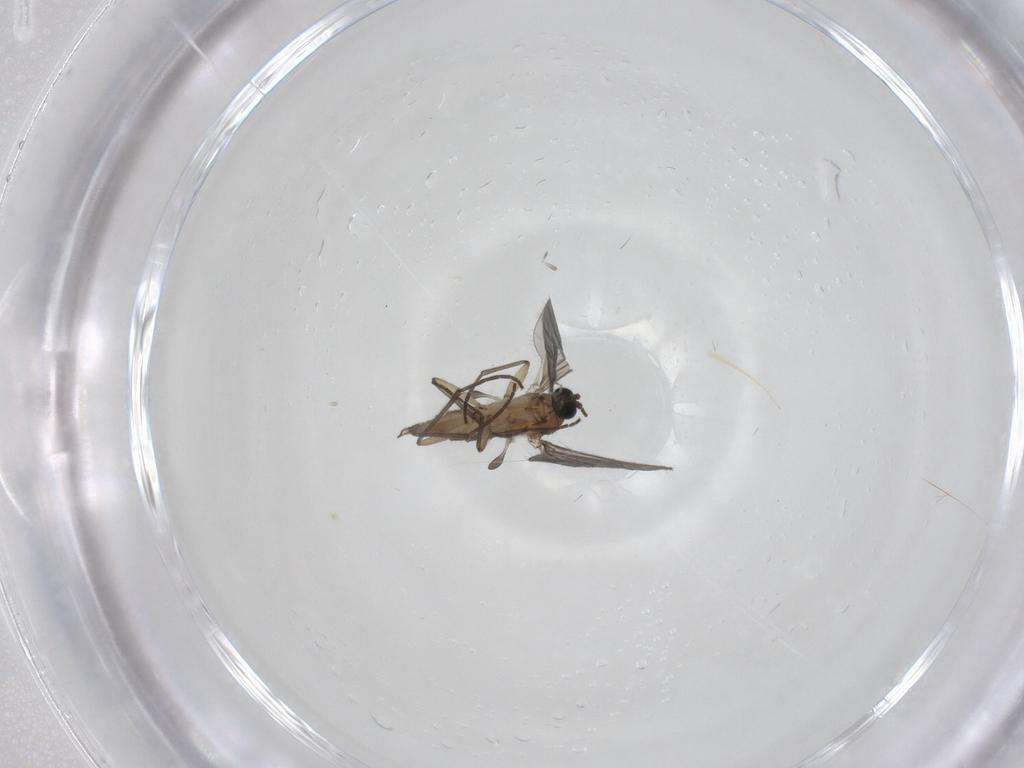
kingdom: Animalia
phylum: Arthropoda
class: Insecta
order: Diptera
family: Sciaridae
